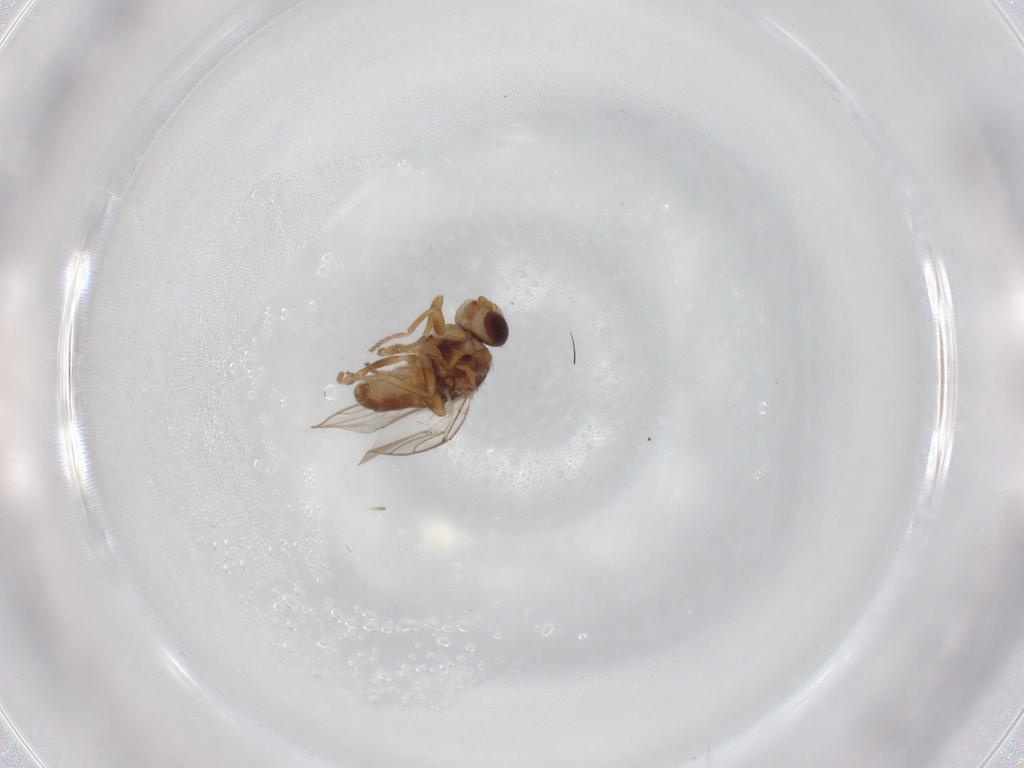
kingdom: Animalia
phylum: Arthropoda
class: Insecta
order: Diptera
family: Chloropidae
